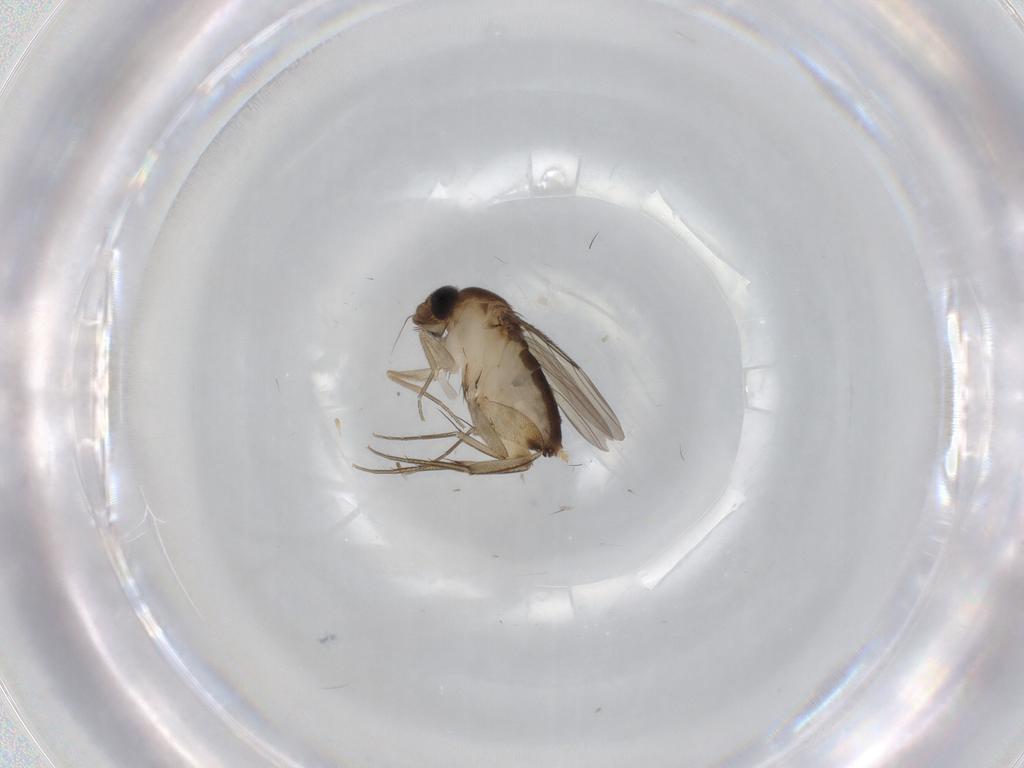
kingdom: Animalia
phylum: Arthropoda
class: Insecta
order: Diptera
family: Phoridae
